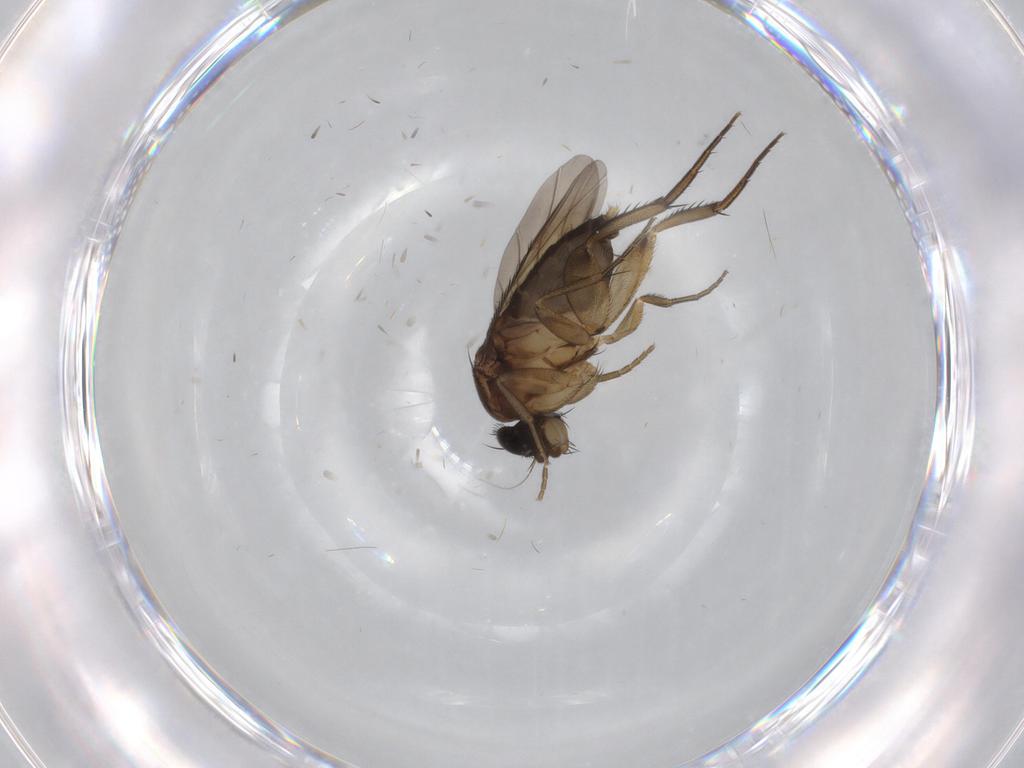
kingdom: Animalia
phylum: Arthropoda
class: Insecta
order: Diptera
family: Phoridae
